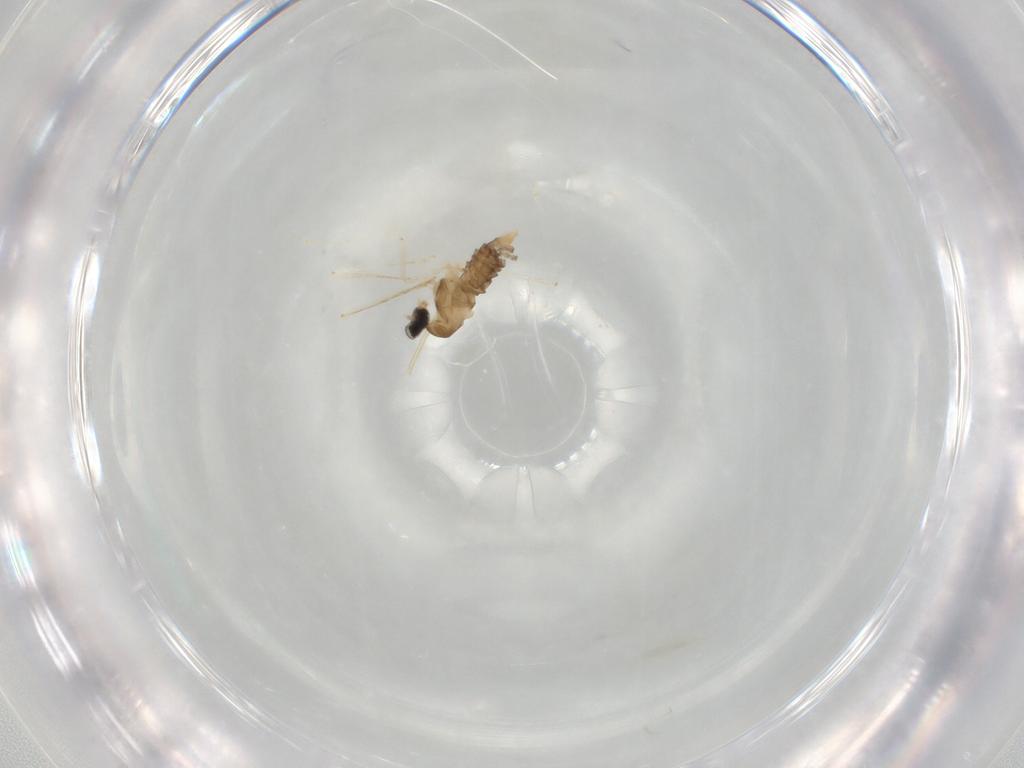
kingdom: Animalia
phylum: Arthropoda
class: Insecta
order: Diptera
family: Cecidomyiidae
